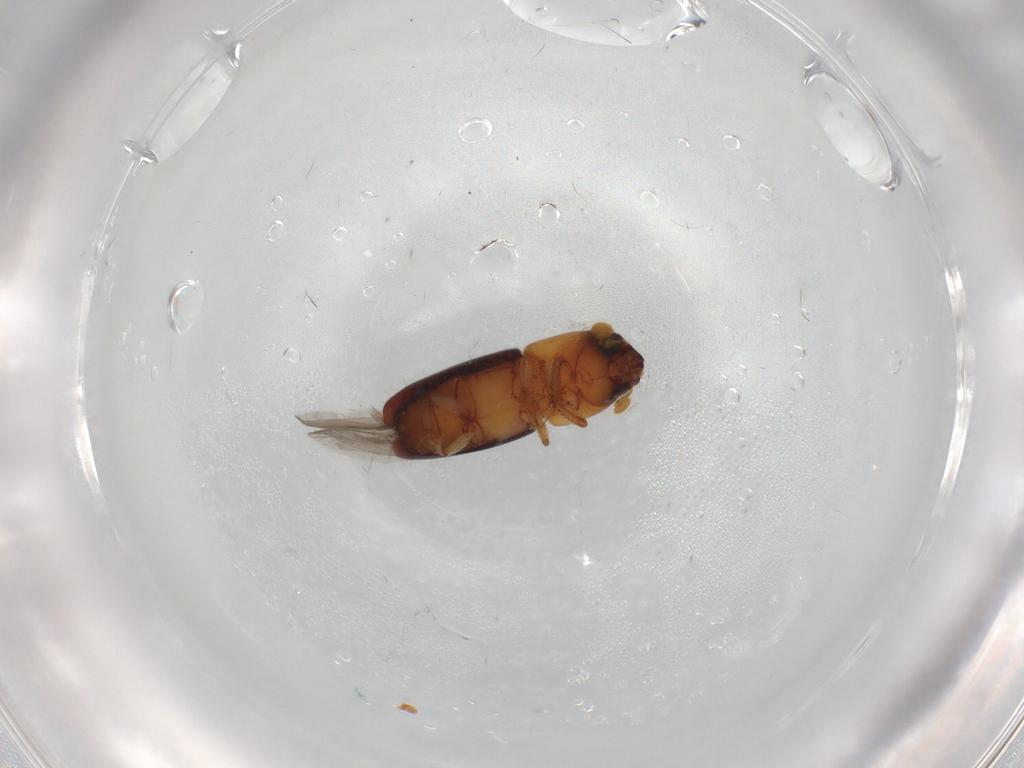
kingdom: Animalia
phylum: Arthropoda
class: Insecta
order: Coleoptera
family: Curculionidae
